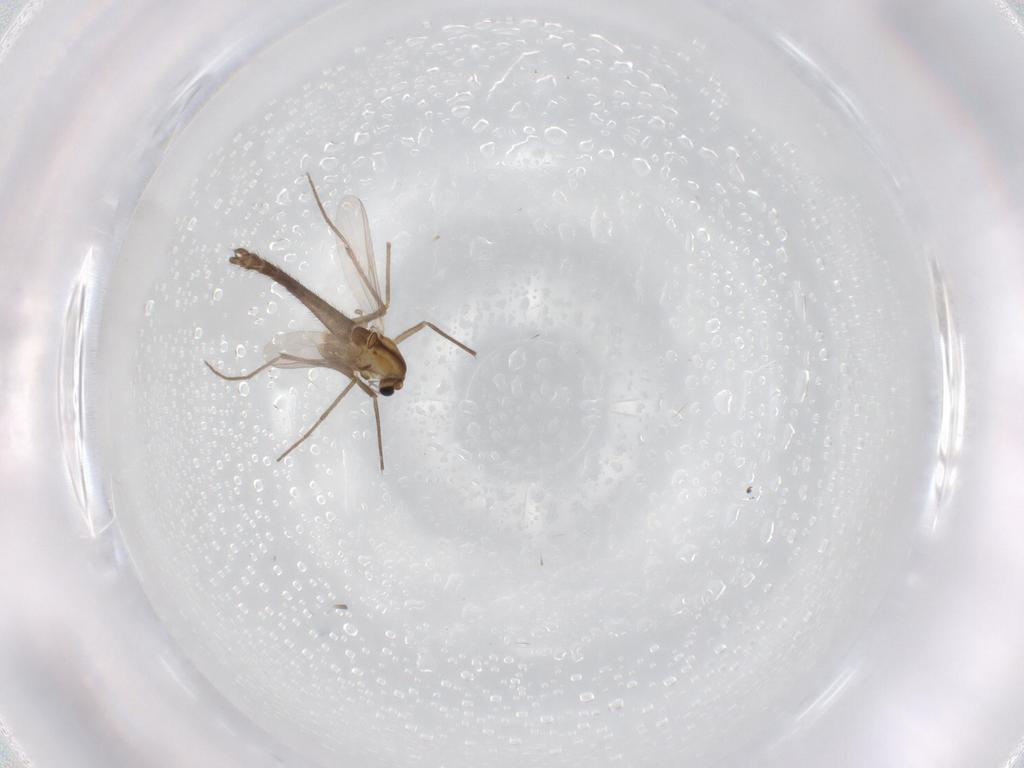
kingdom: Animalia
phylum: Arthropoda
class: Insecta
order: Diptera
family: Chironomidae
